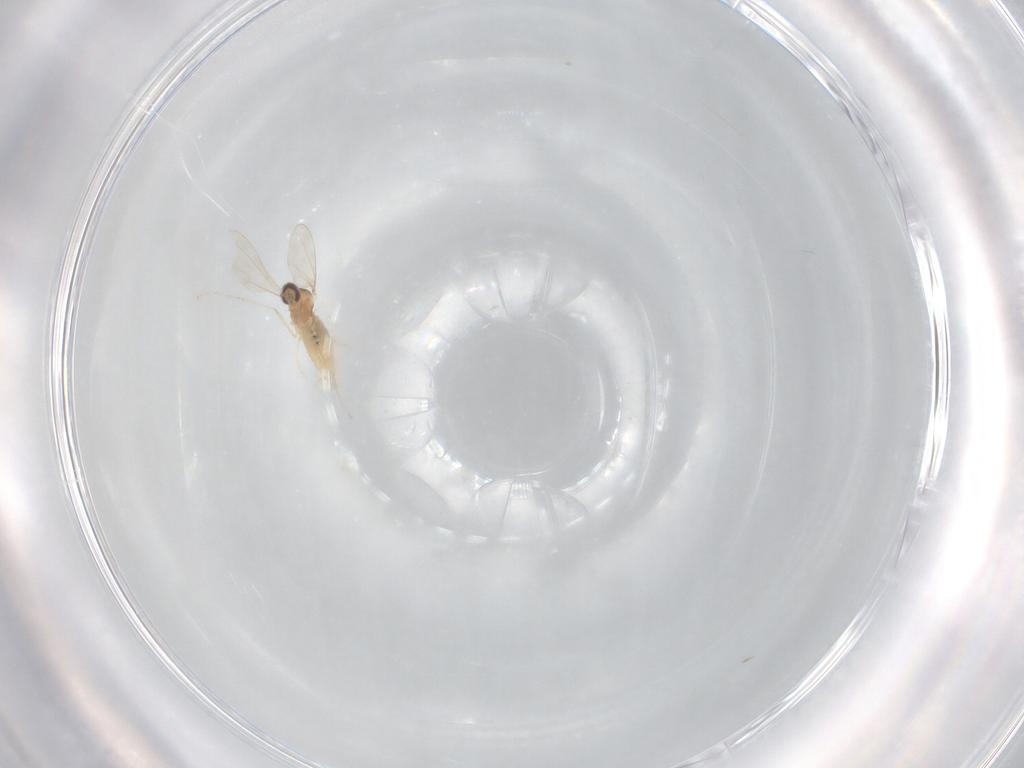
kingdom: Animalia
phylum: Arthropoda
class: Insecta
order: Diptera
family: Cecidomyiidae
